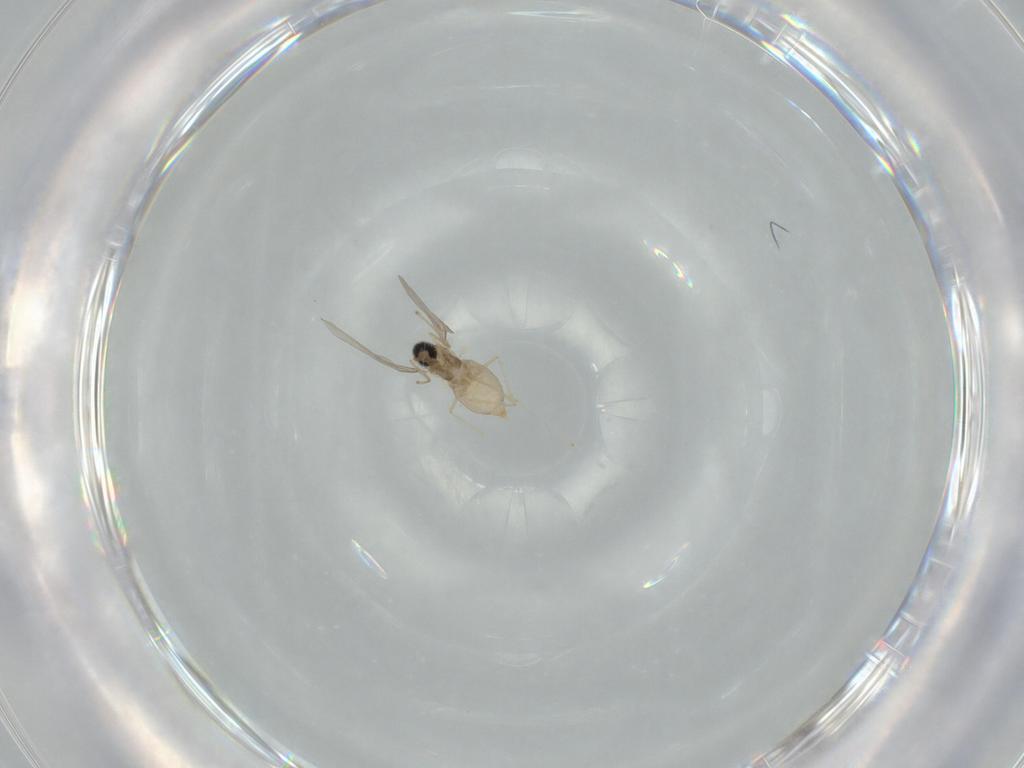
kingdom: Animalia
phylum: Arthropoda
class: Insecta
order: Diptera
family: Cecidomyiidae
